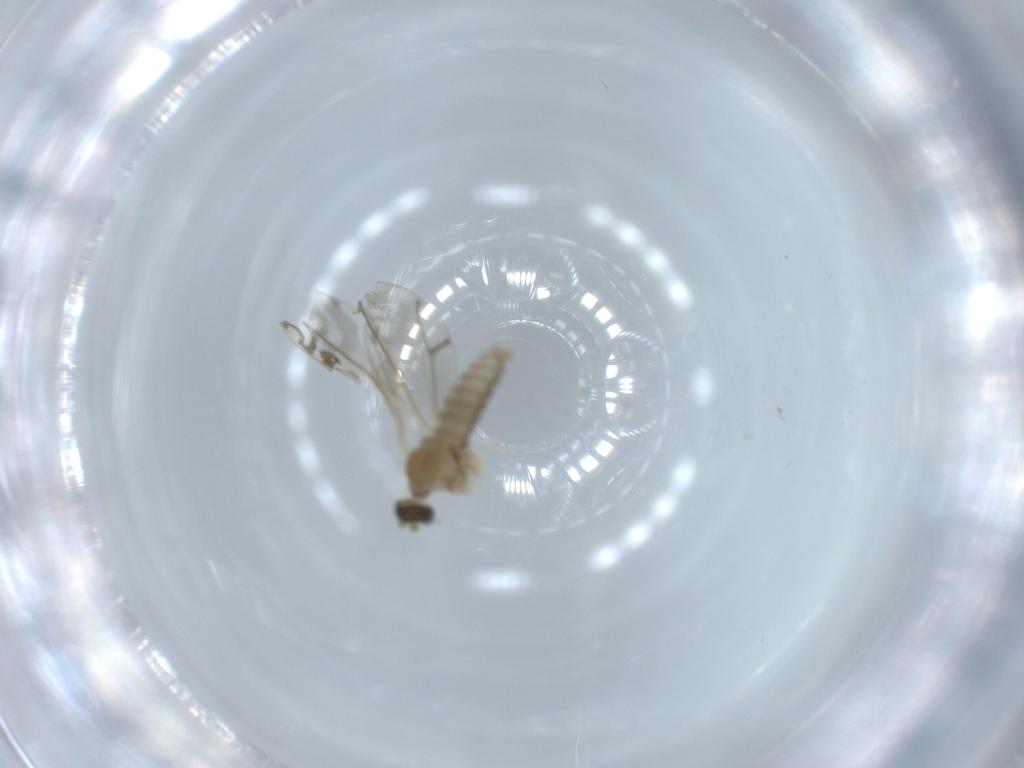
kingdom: Animalia
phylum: Arthropoda
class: Insecta
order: Diptera
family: Cecidomyiidae
